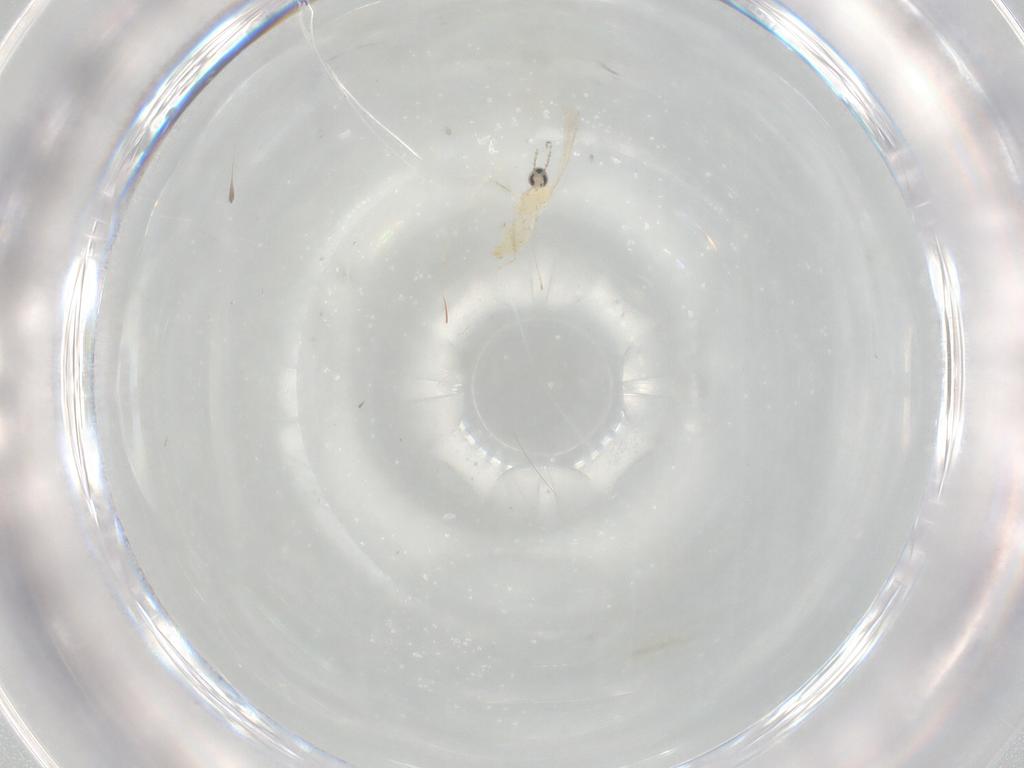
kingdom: Animalia
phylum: Arthropoda
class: Insecta
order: Diptera
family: Cecidomyiidae
